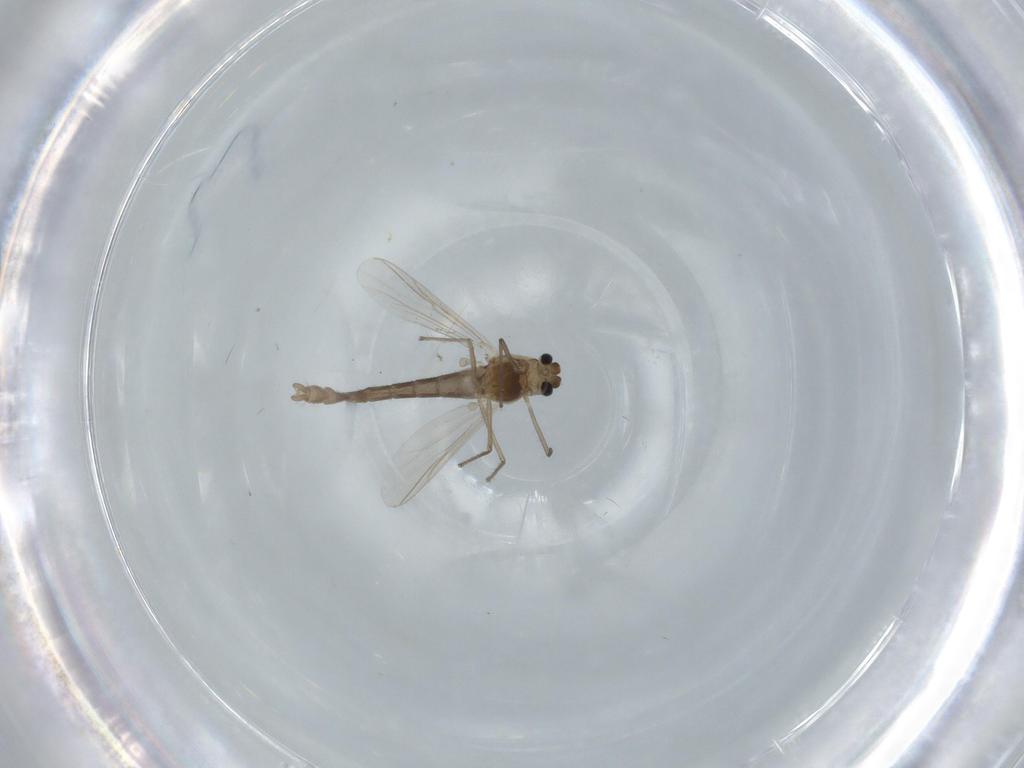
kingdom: Animalia
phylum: Arthropoda
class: Insecta
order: Diptera
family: Chironomidae
